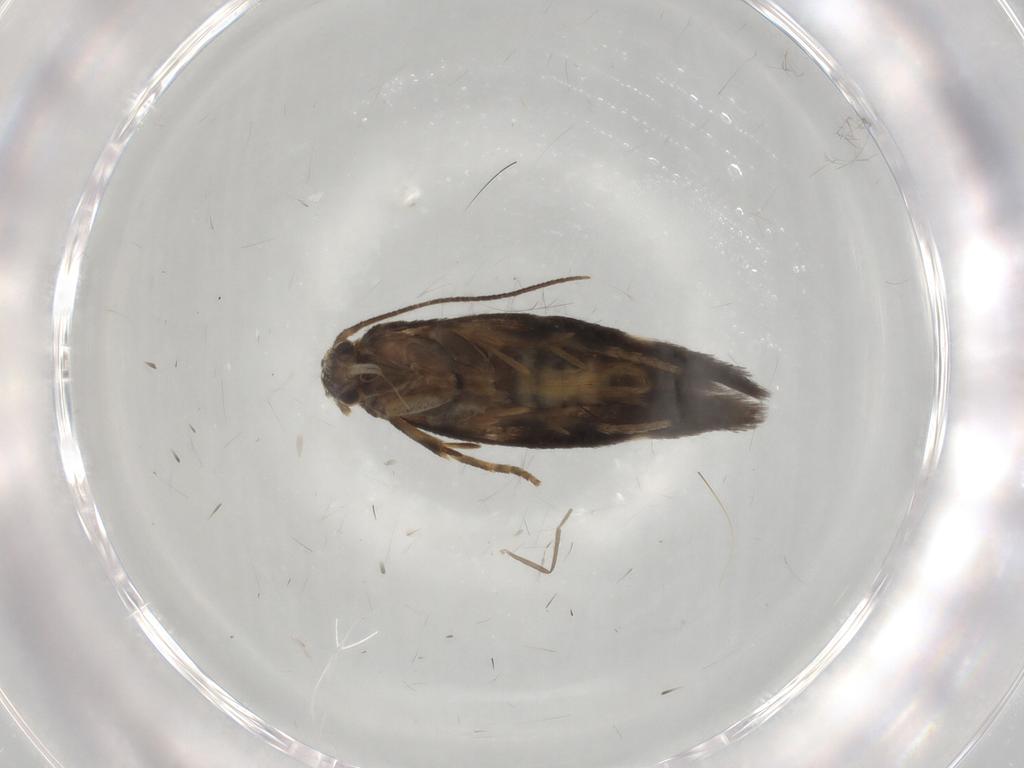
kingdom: Animalia
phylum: Arthropoda
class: Insecta
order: Lepidoptera
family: Elachistidae
